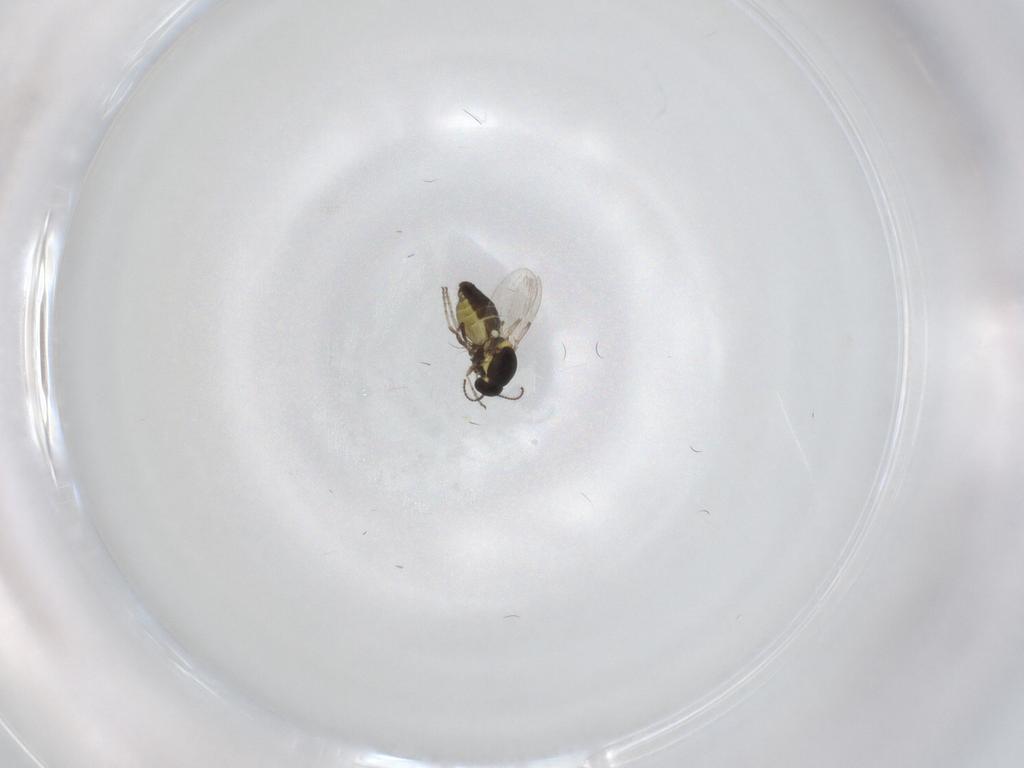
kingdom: Animalia
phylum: Arthropoda
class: Insecta
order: Diptera
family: Ceratopogonidae
